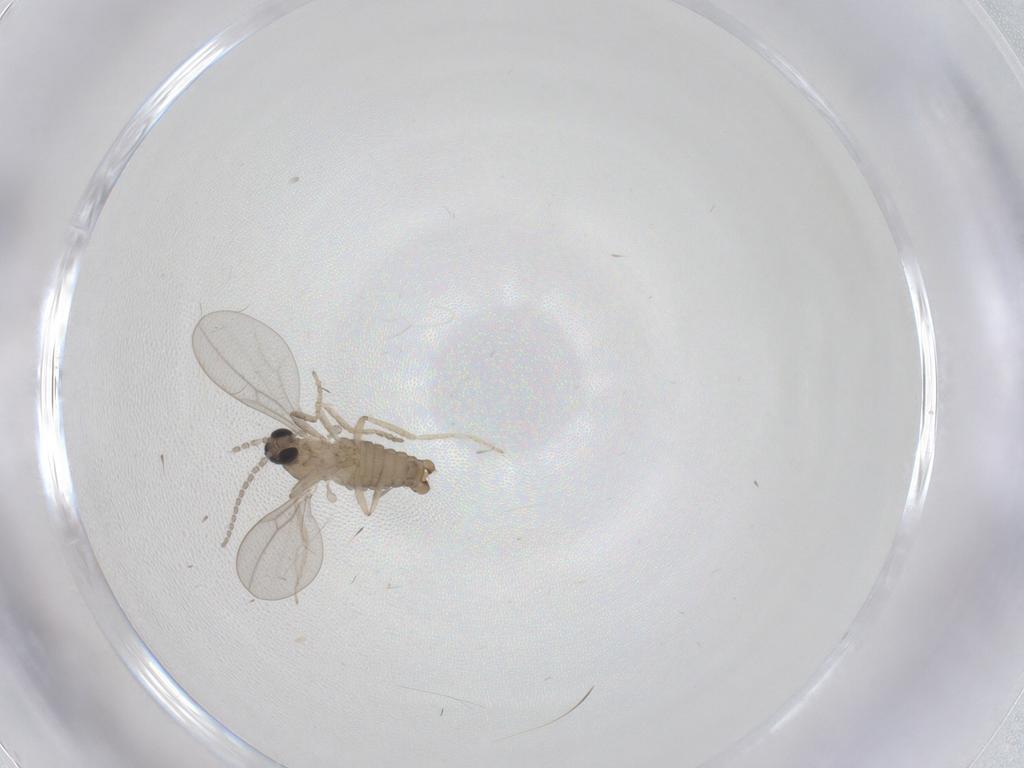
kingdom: Animalia
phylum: Arthropoda
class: Insecta
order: Diptera
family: Cecidomyiidae
